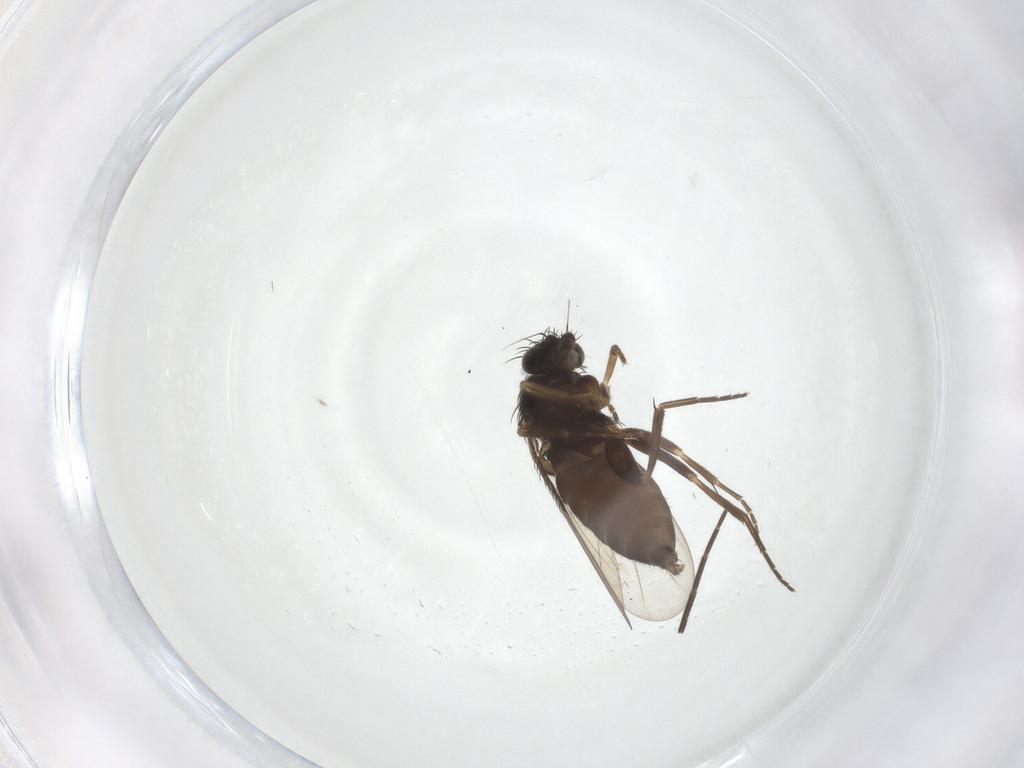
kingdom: Animalia
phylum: Arthropoda
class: Insecta
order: Diptera
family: Phoridae
